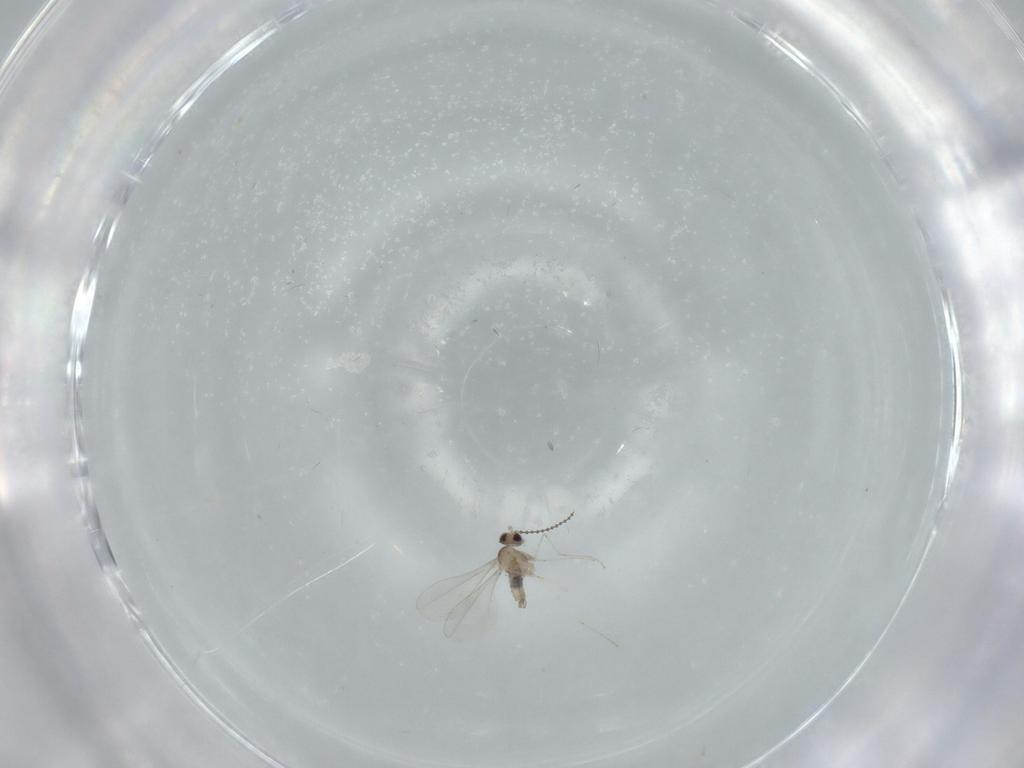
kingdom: Animalia
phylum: Arthropoda
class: Insecta
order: Diptera
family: Cecidomyiidae
